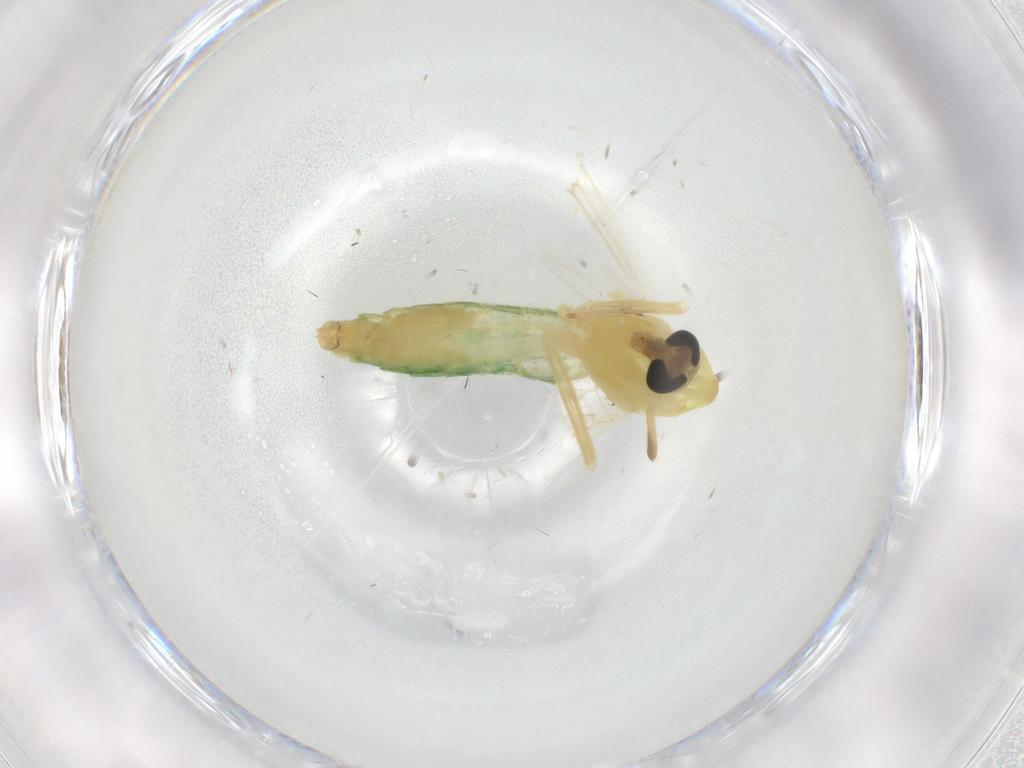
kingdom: Animalia
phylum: Arthropoda
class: Insecta
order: Diptera
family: Chironomidae
